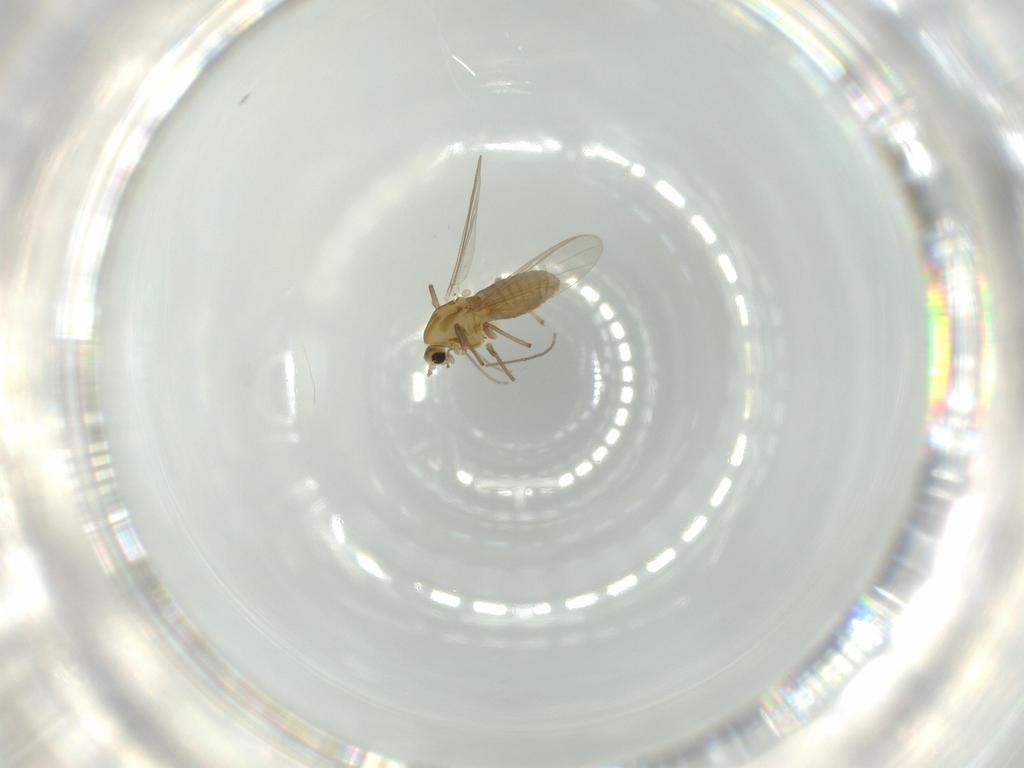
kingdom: Animalia
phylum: Arthropoda
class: Insecta
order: Diptera
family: Chironomidae
